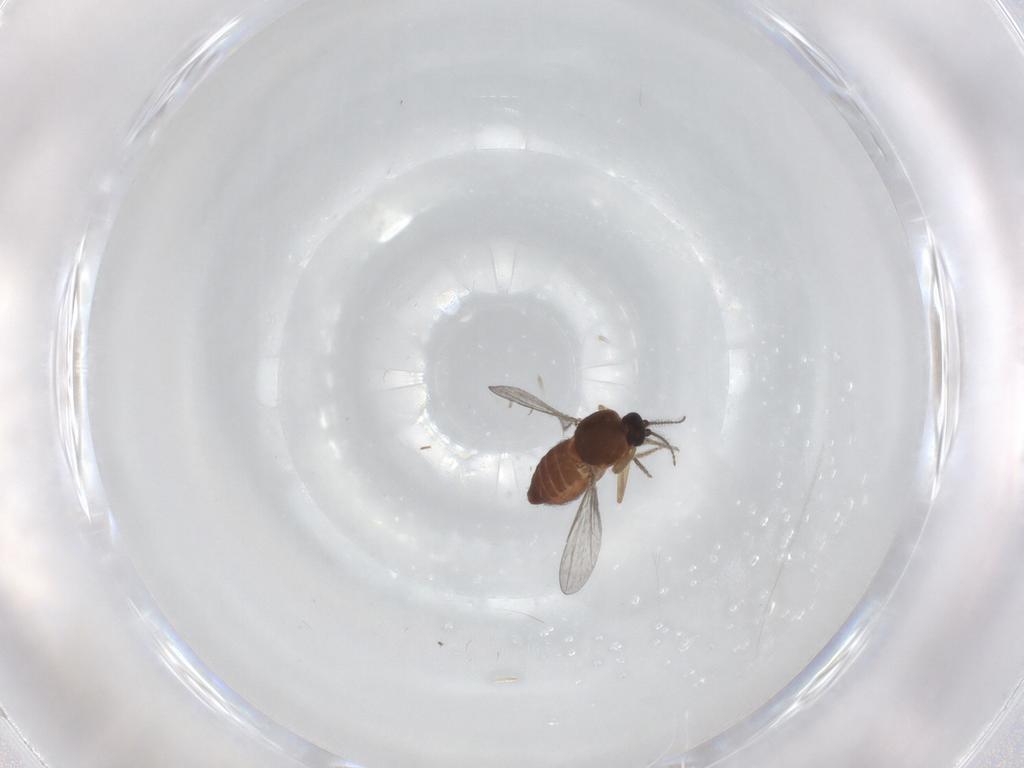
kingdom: Animalia
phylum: Arthropoda
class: Insecta
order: Diptera
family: Ceratopogonidae
